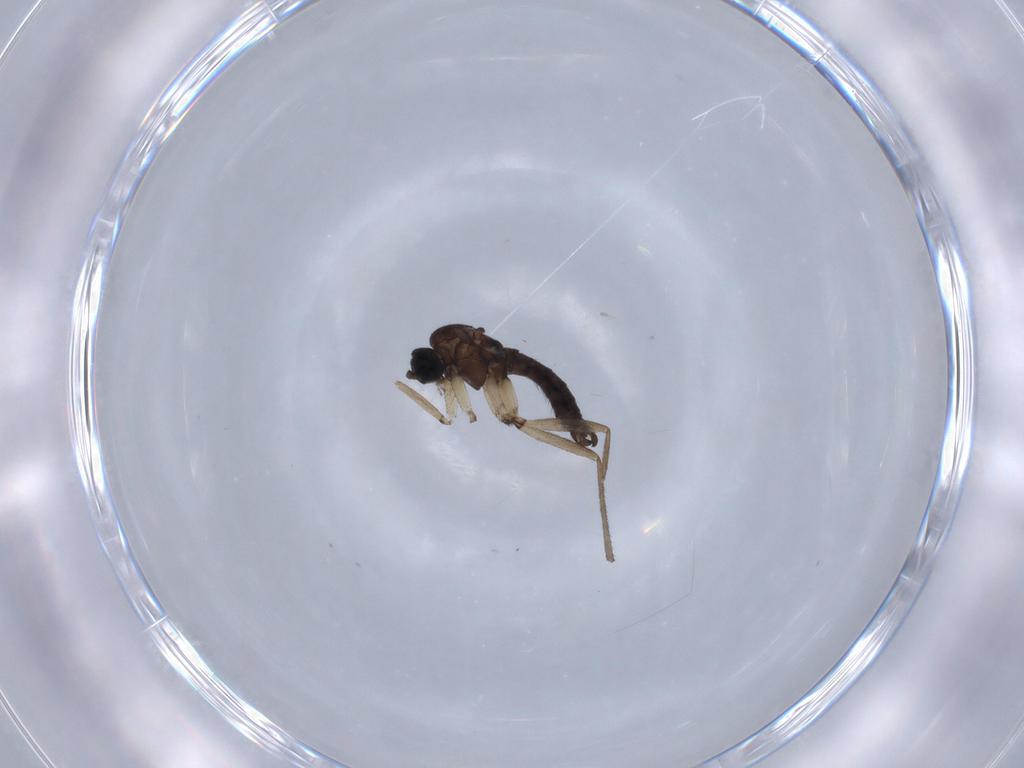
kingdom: Animalia
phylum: Arthropoda
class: Insecta
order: Diptera
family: Sciaridae
